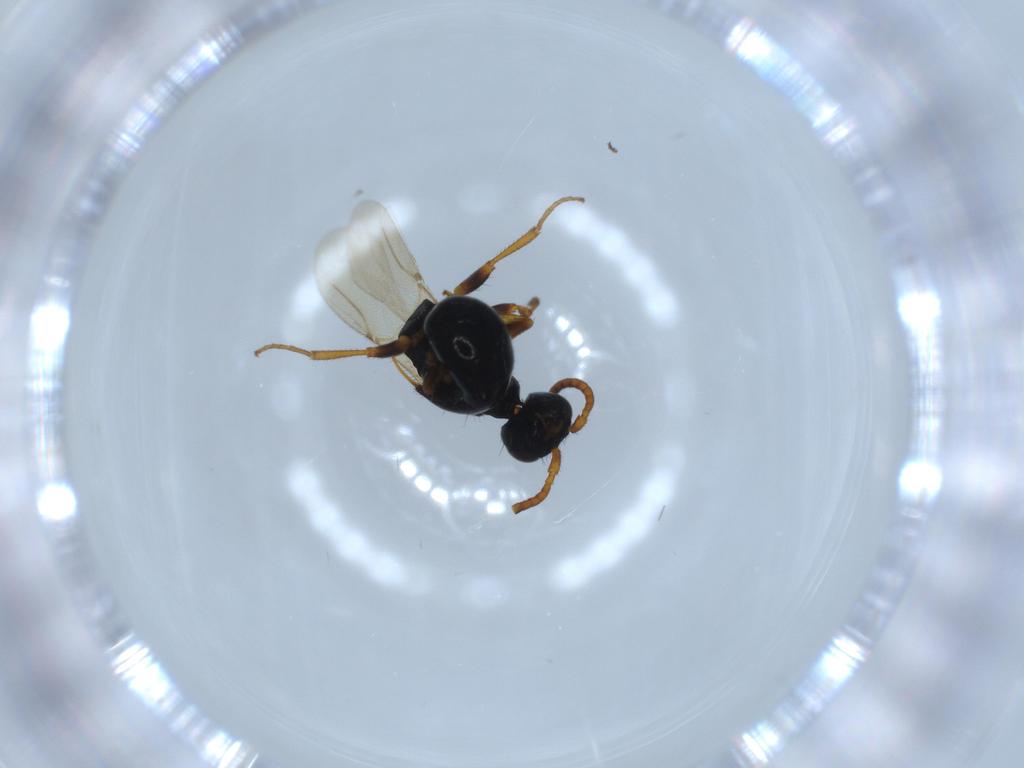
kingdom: Animalia
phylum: Arthropoda
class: Insecta
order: Hymenoptera
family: Bethylidae
